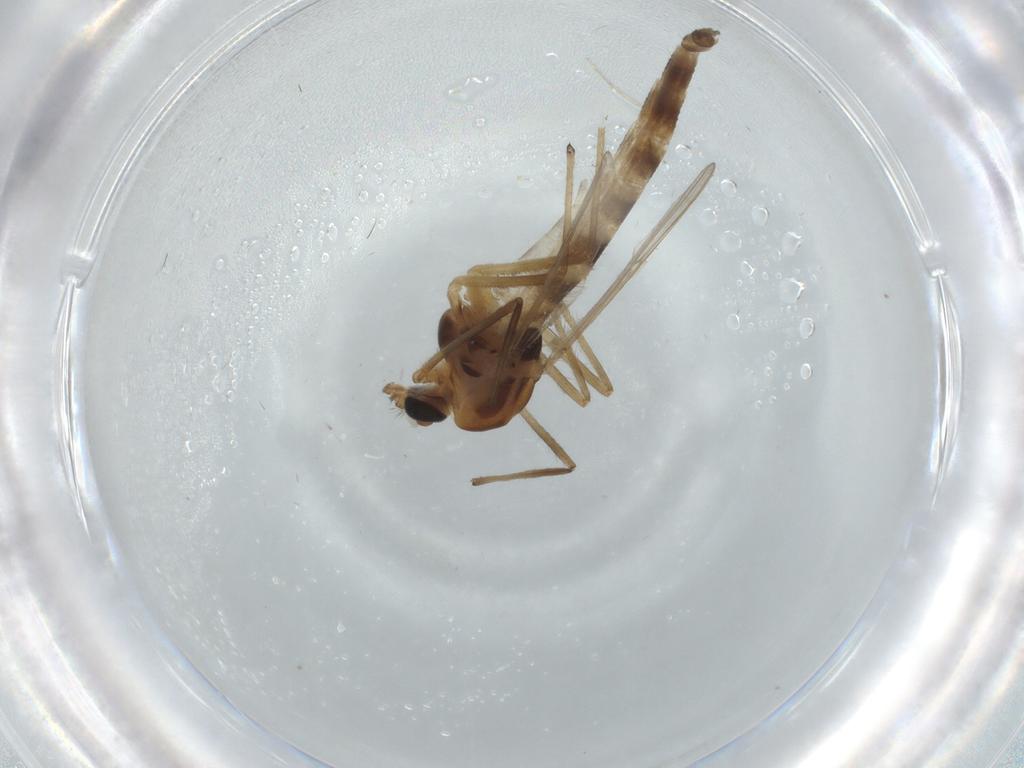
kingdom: Animalia
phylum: Arthropoda
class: Insecta
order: Diptera
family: Chironomidae
